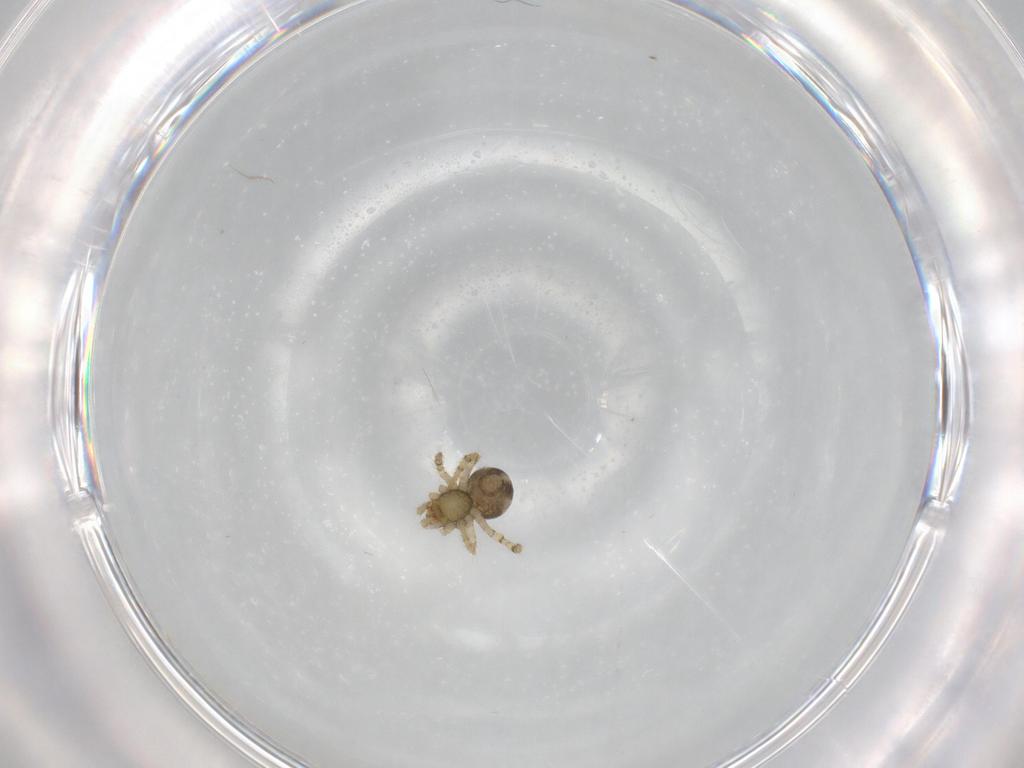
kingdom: Animalia
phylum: Arthropoda
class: Arachnida
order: Araneae
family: Theridiidae
